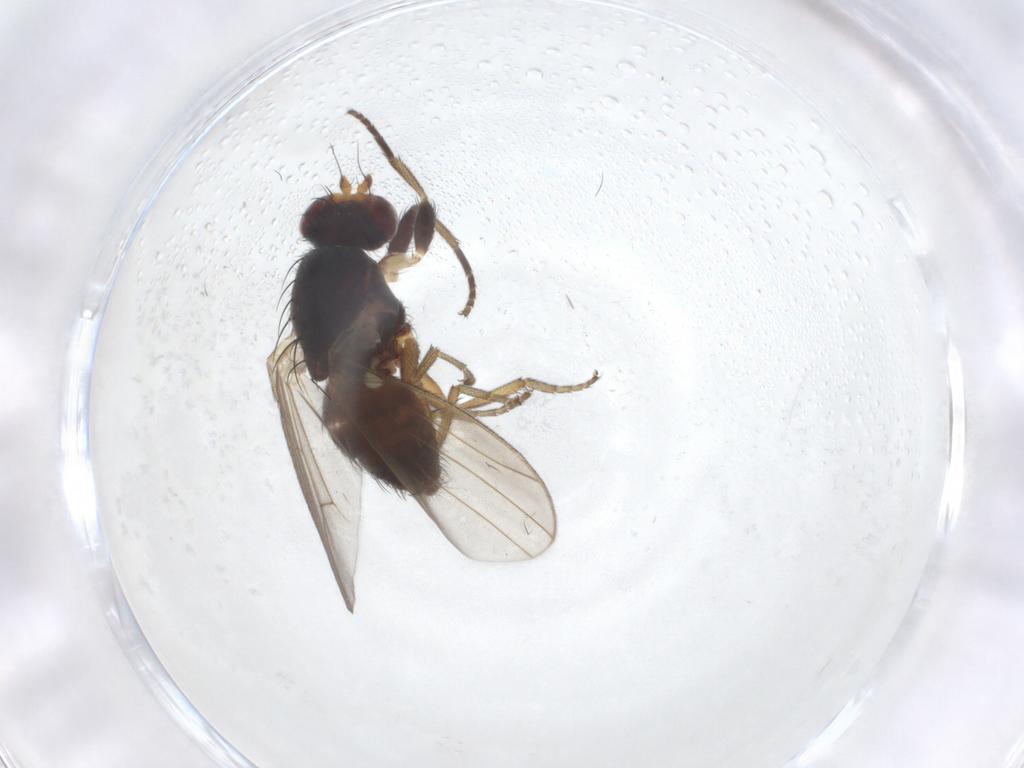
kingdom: Animalia
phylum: Arthropoda
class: Insecta
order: Diptera
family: Heleomyzidae
